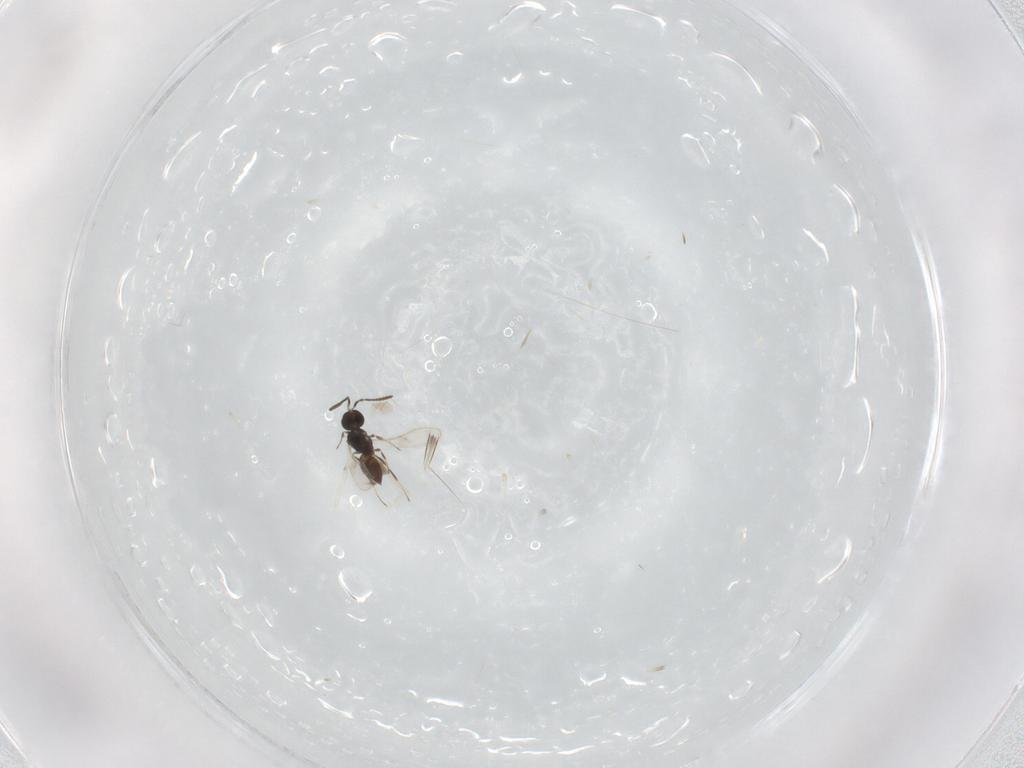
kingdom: Animalia
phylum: Arthropoda
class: Insecta
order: Hymenoptera
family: Scelionidae
